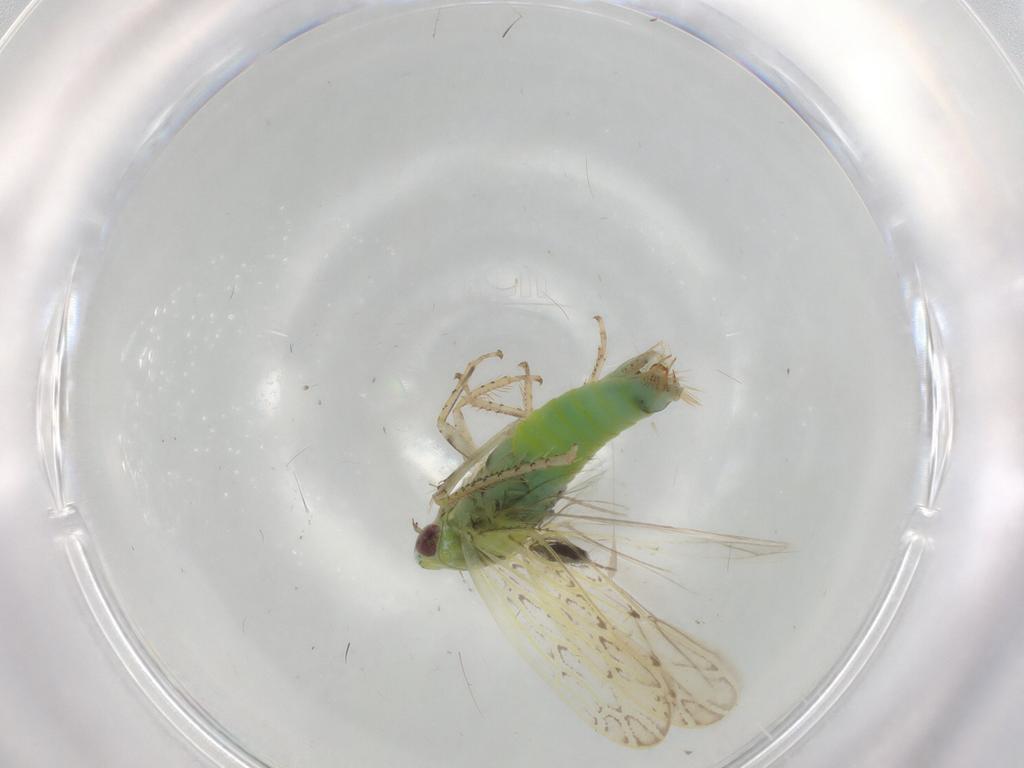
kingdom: Animalia
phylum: Arthropoda
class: Insecta
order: Hemiptera
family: Cicadellidae
